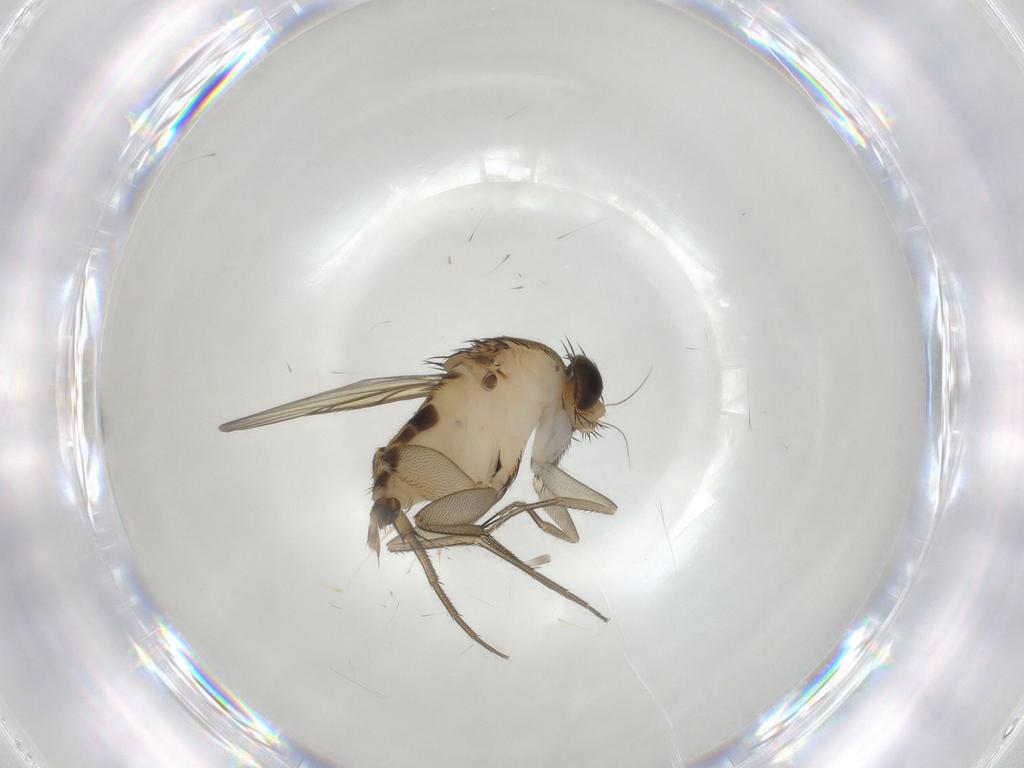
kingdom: Animalia
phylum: Arthropoda
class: Insecta
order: Diptera
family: Phoridae
